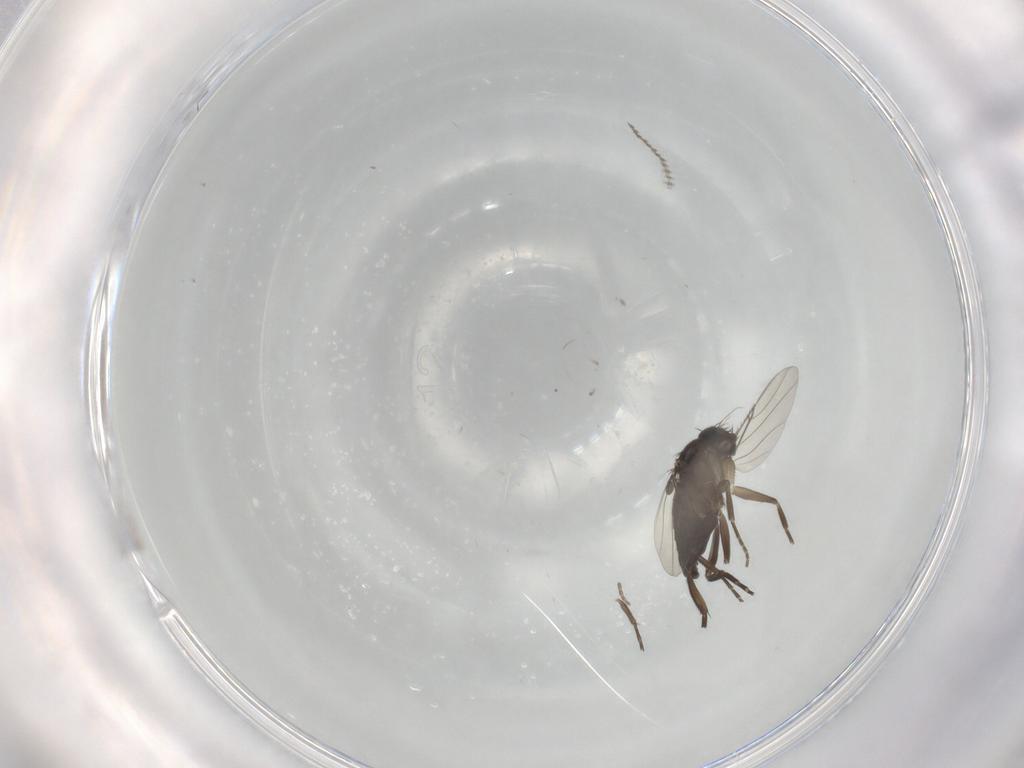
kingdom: Animalia
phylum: Arthropoda
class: Insecta
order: Diptera
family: Phoridae
